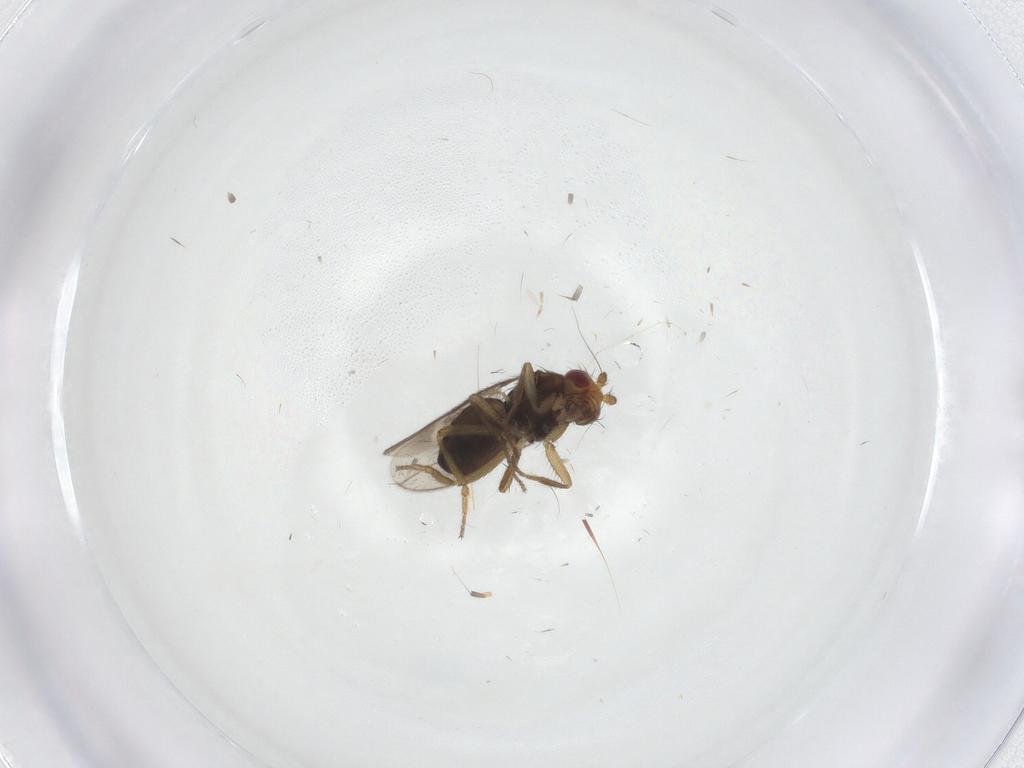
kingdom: Animalia
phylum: Arthropoda
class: Insecta
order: Diptera
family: Sphaeroceridae
